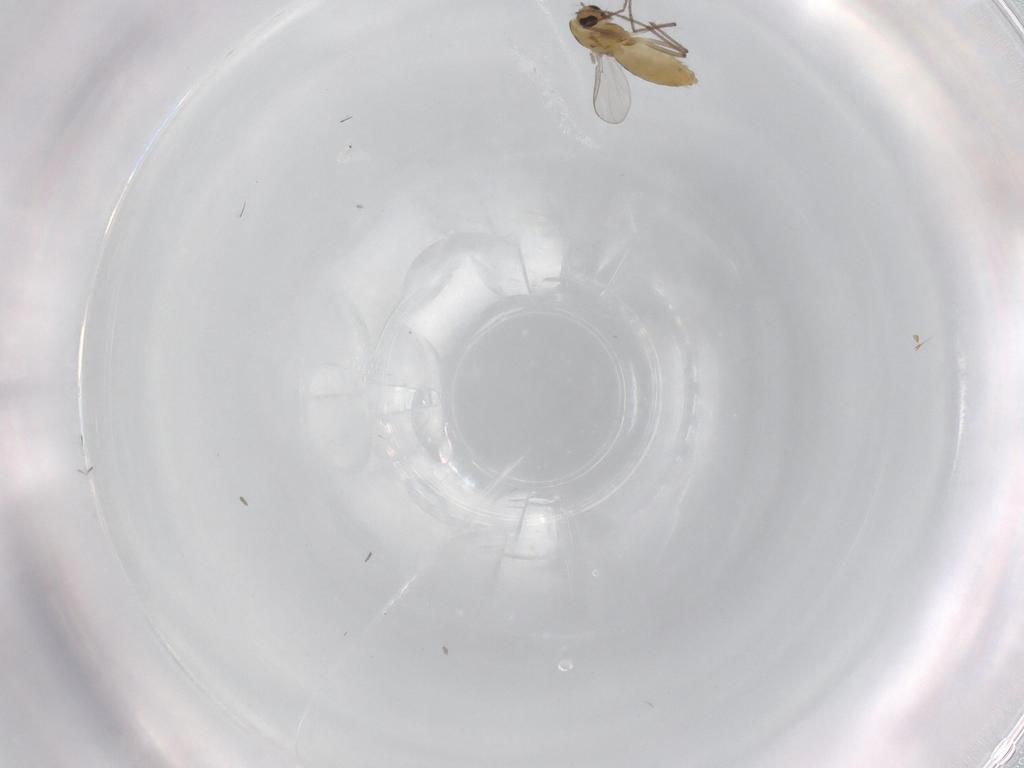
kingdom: Animalia
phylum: Arthropoda
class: Insecta
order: Diptera
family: Chironomidae
